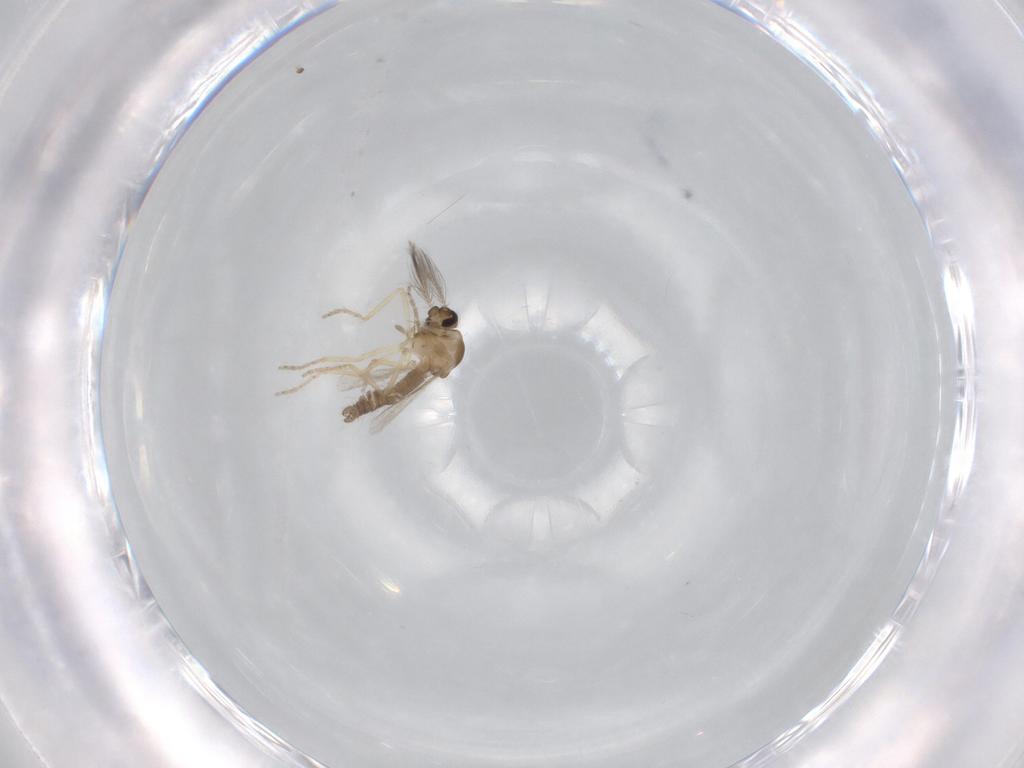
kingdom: Animalia
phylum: Arthropoda
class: Insecta
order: Diptera
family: Ceratopogonidae
